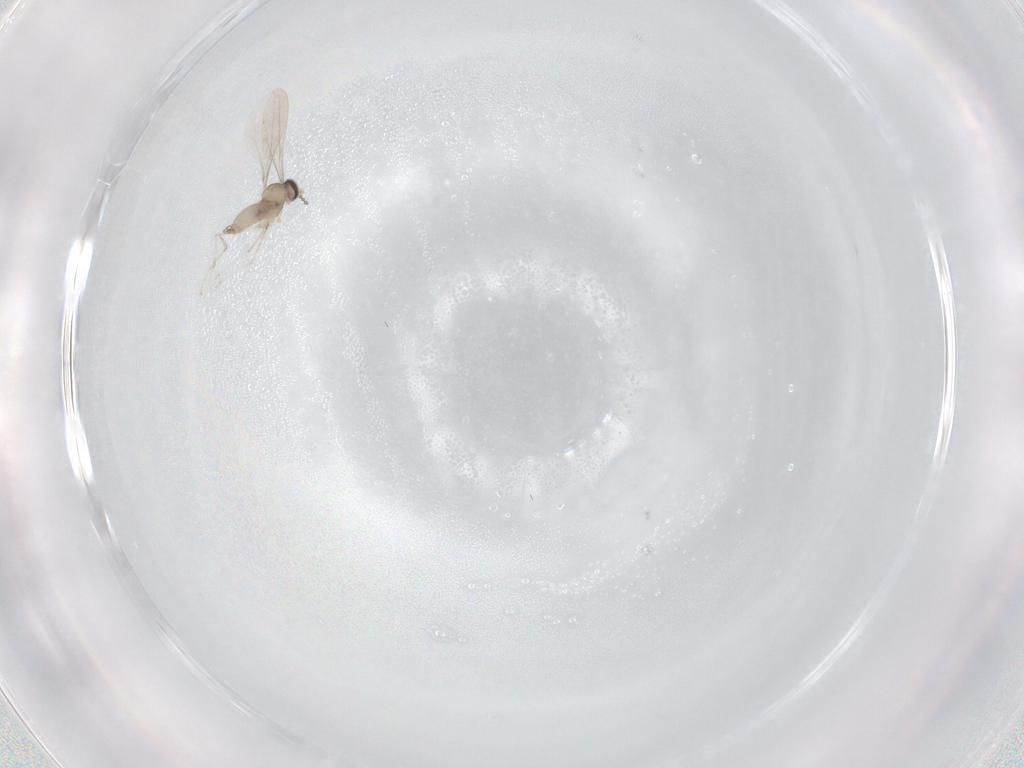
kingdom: Animalia
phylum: Arthropoda
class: Insecta
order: Diptera
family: Cecidomyiidae
